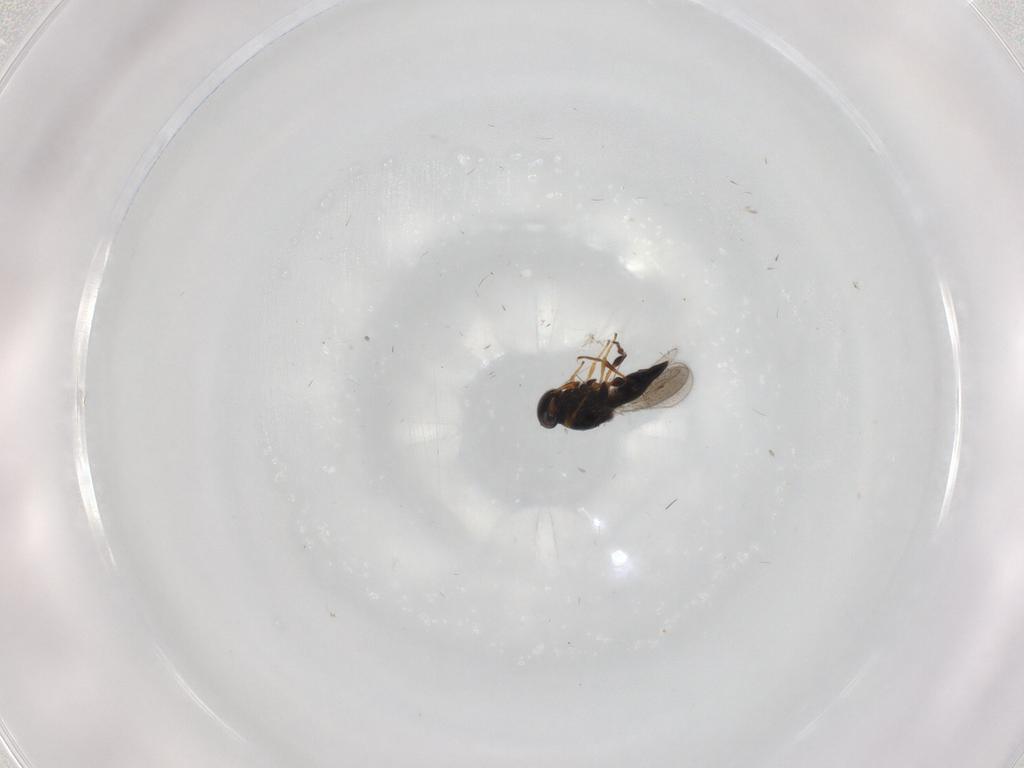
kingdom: Animalia
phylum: Arthropoda
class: Insecta
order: Hymenoptera
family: Platygastridae
